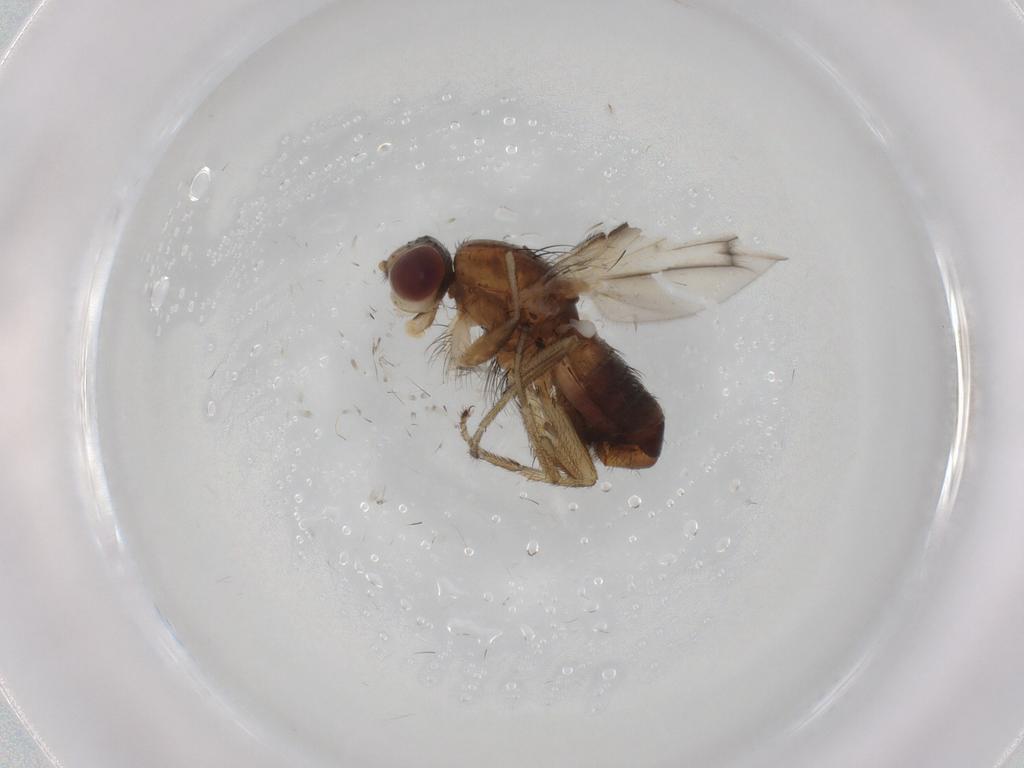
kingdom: Animalia
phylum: Arthropoda
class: Insecta
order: Diptera
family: Heleomyzidae
